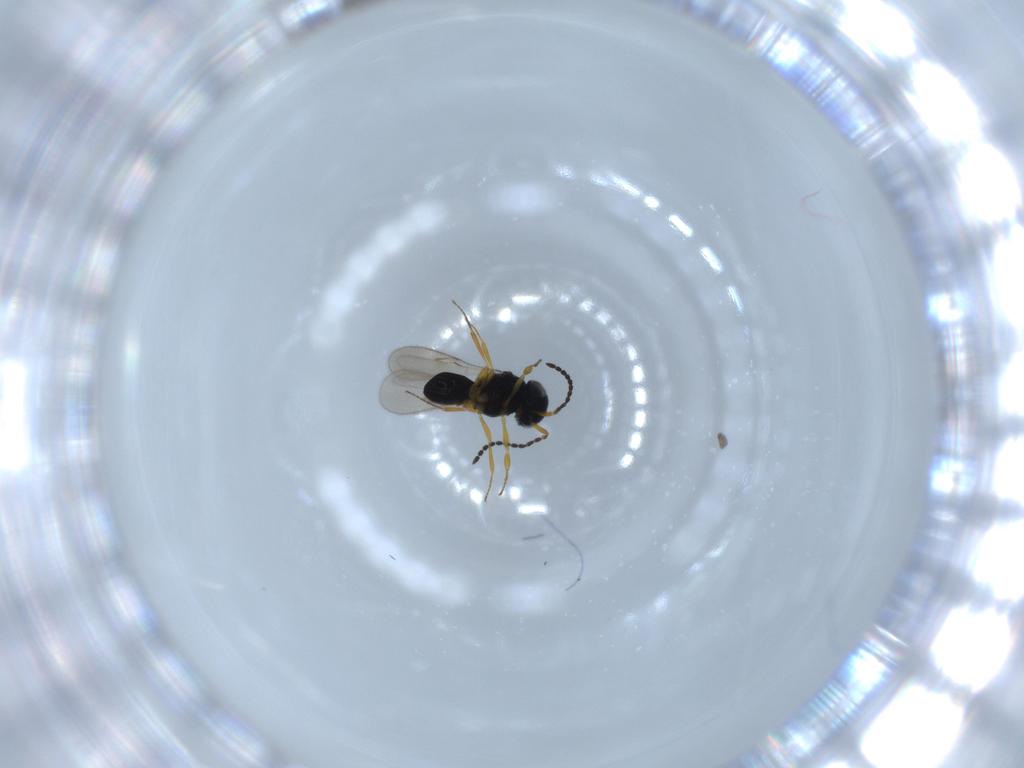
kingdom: Animalia
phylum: Arthropoda
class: Insecta
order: Hymenoptera
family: Scelionidae
